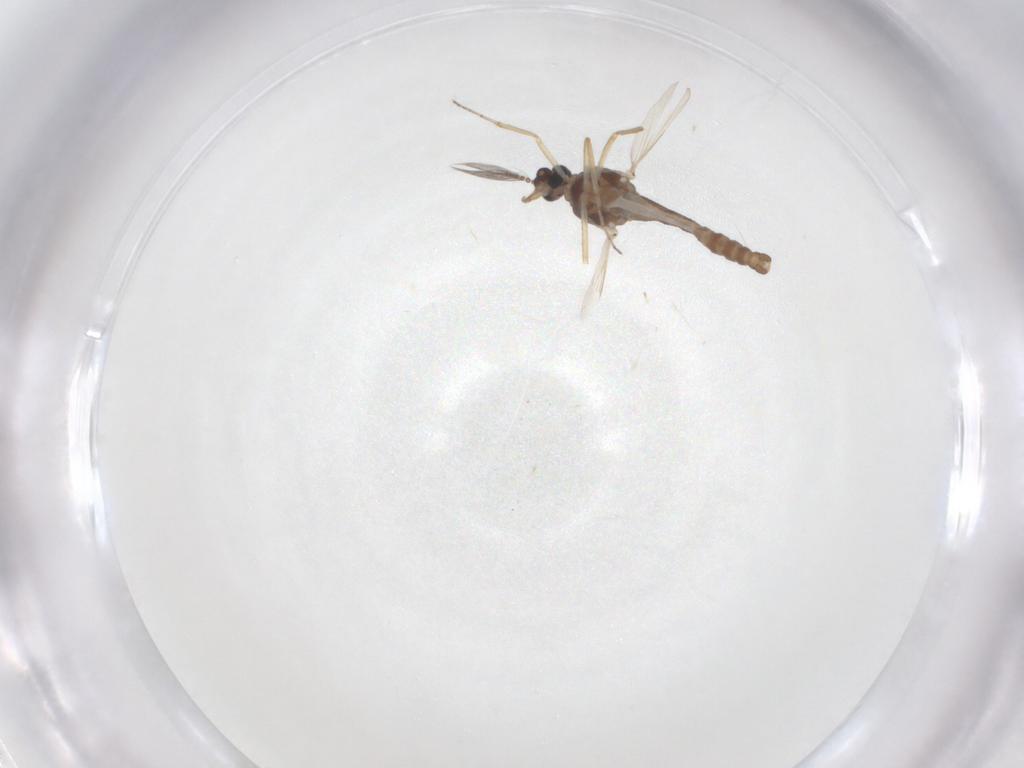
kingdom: Animalia
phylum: Arthropoda
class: Insecta
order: Diptera
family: Ceratopogonidae
